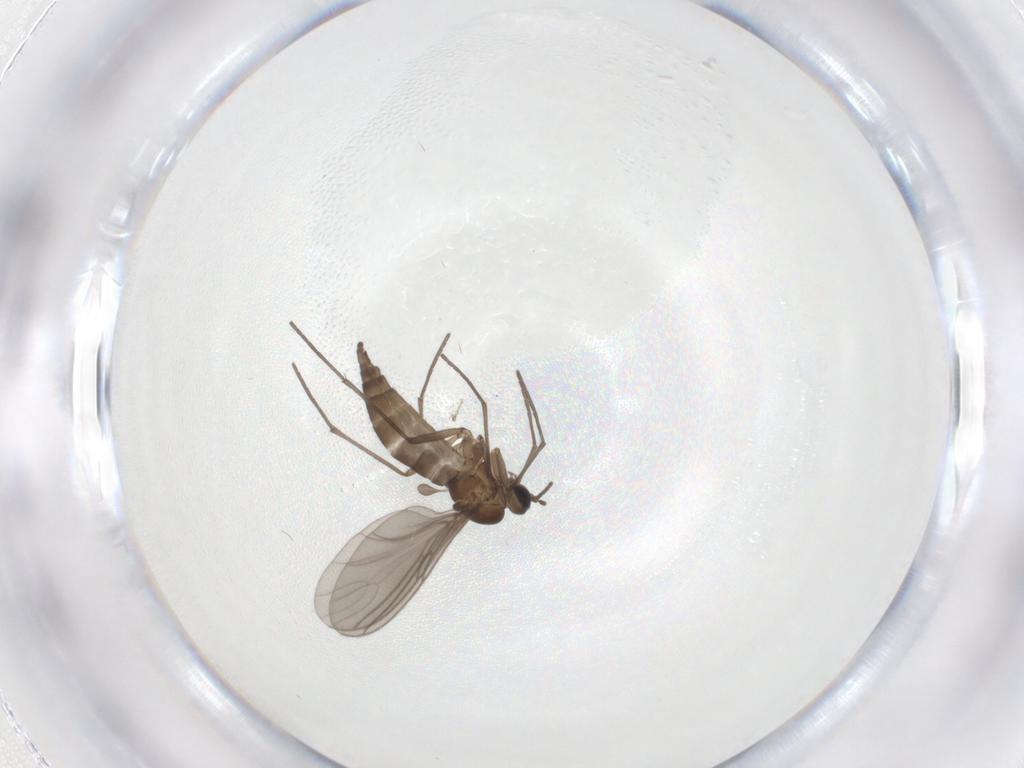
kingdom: Animalia
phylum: Arthropoda
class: Insecta
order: Diptera
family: Sciaridae
